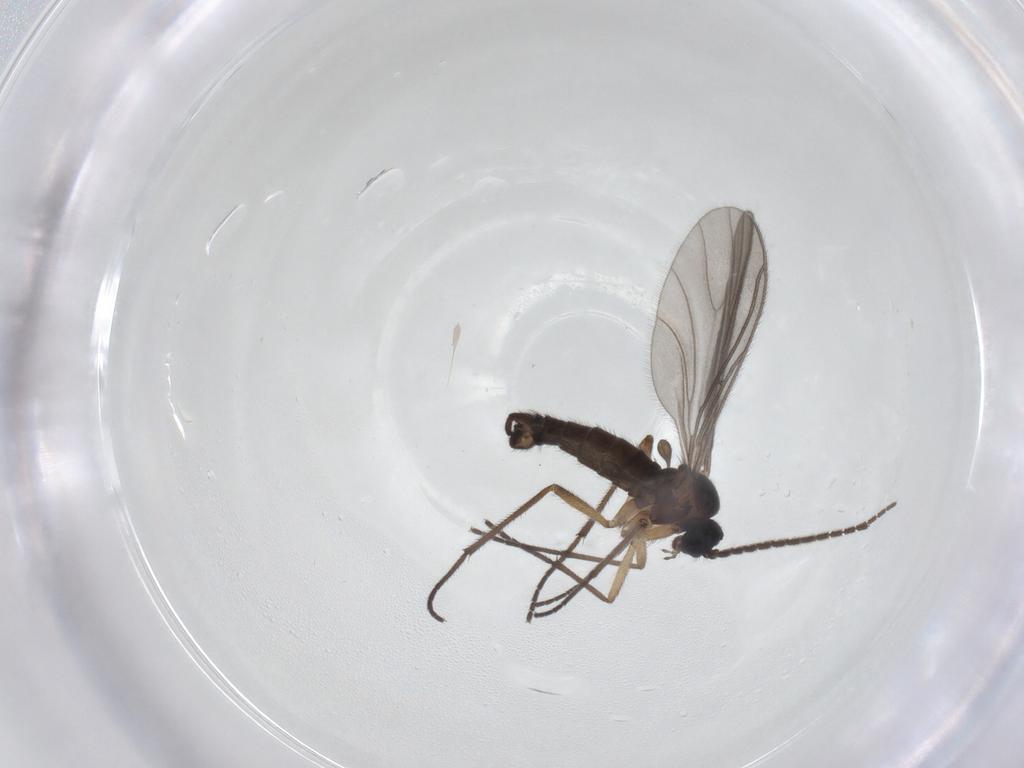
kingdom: Animalia
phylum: Arthropoda
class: Insecta
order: Diptera
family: Sciaridae
